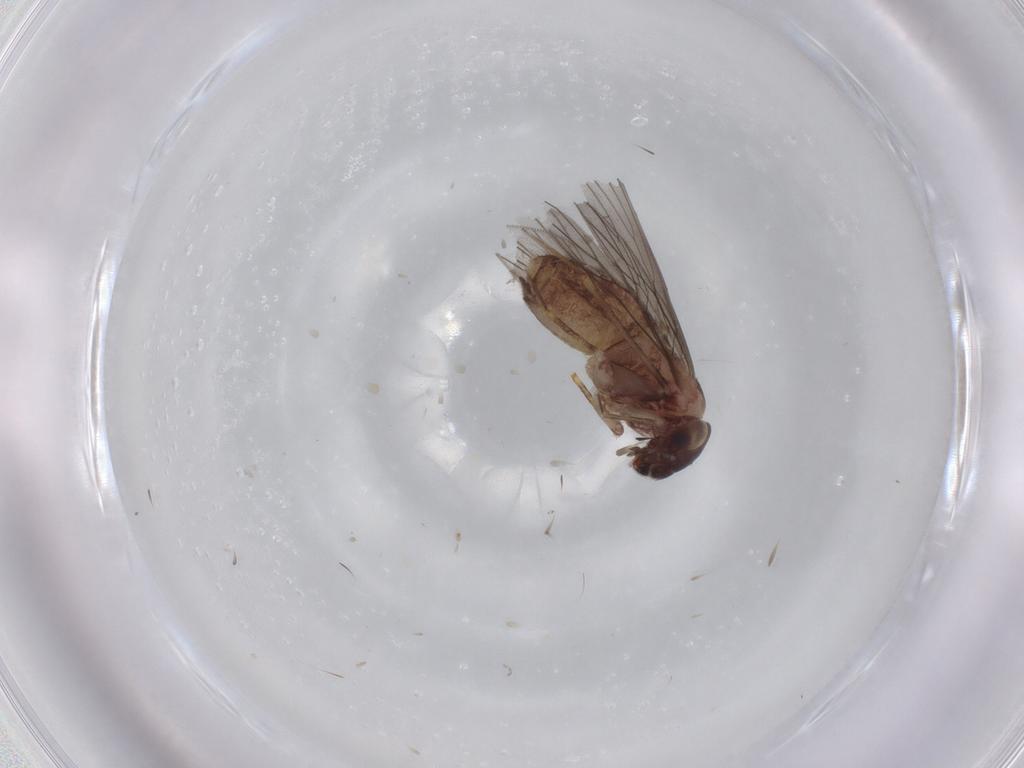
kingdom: Animalia
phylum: Arthropoda
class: Insecta
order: Psocodea
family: Lepidopsocidae
